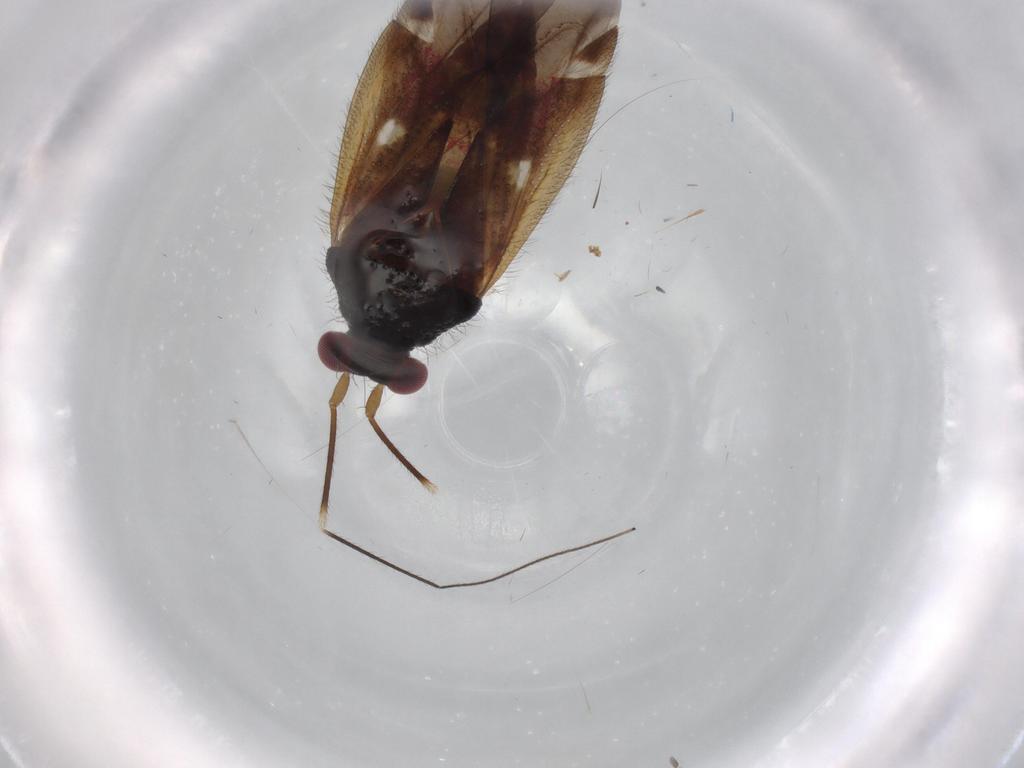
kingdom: Animalia
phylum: Arthropoda
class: Insecta
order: Hemiptera
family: Miridae
